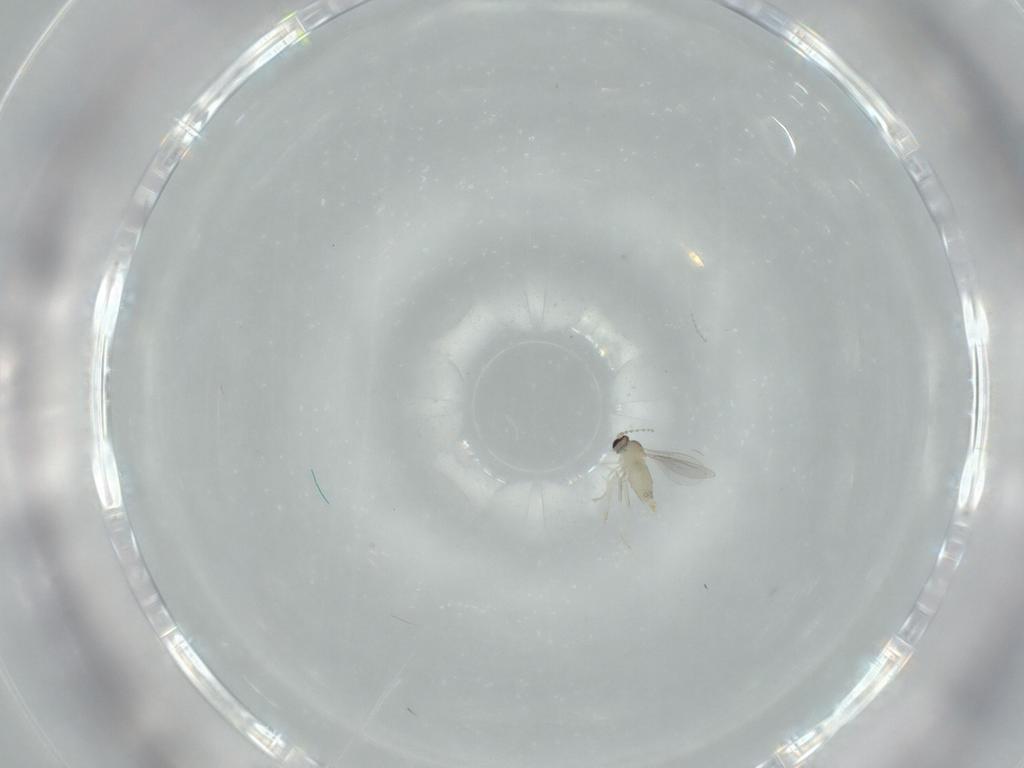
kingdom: Animalia
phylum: Arthropoda
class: Insecta
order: Diptera
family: Cecidomyiidae
